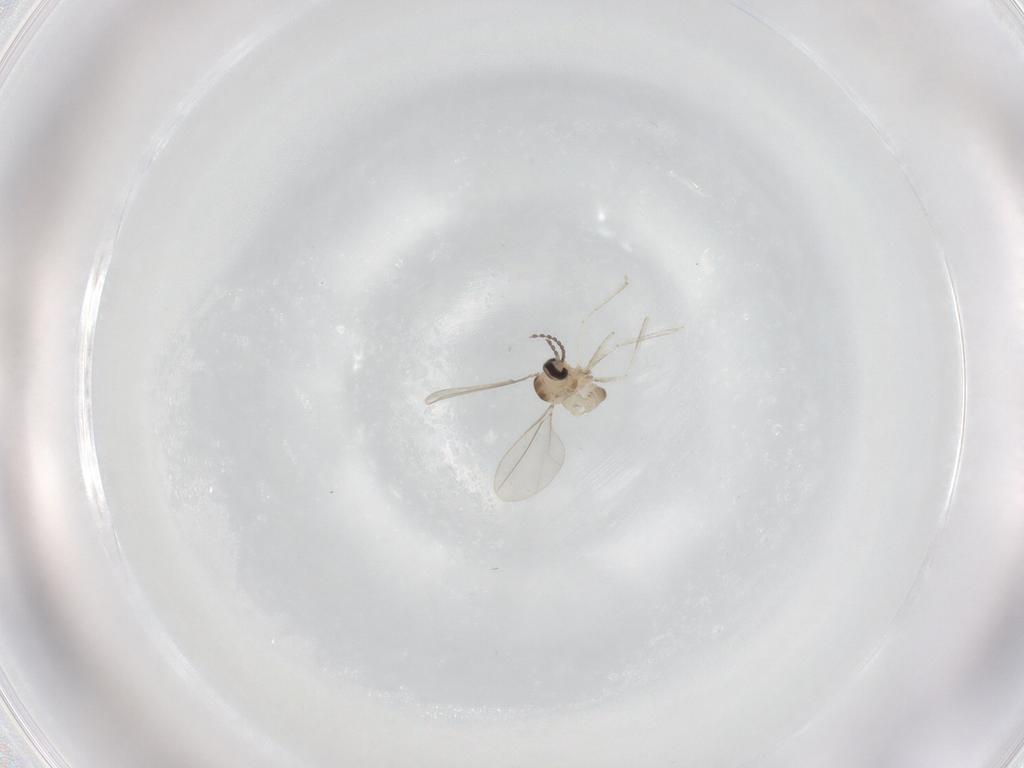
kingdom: Animalia
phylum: Arthropoda
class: Insecta
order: Diptera
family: Cecidomyiidae
